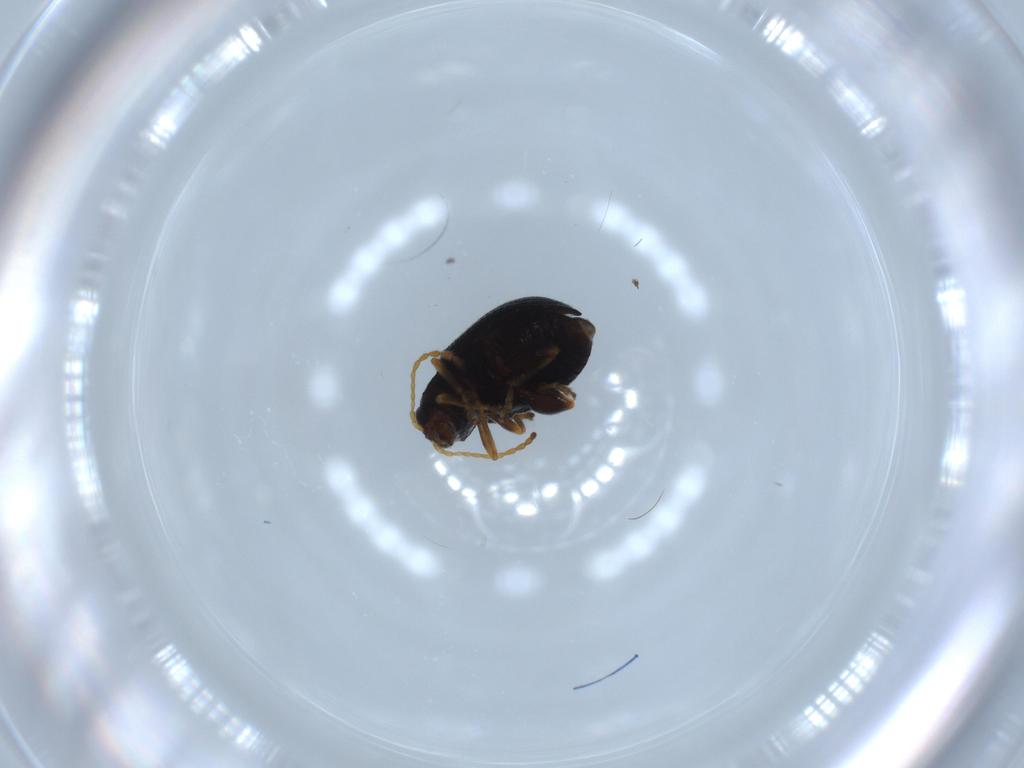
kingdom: Animalia
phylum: Arthropoda
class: Insecta
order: Coleoptera
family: Chrysomelidae
